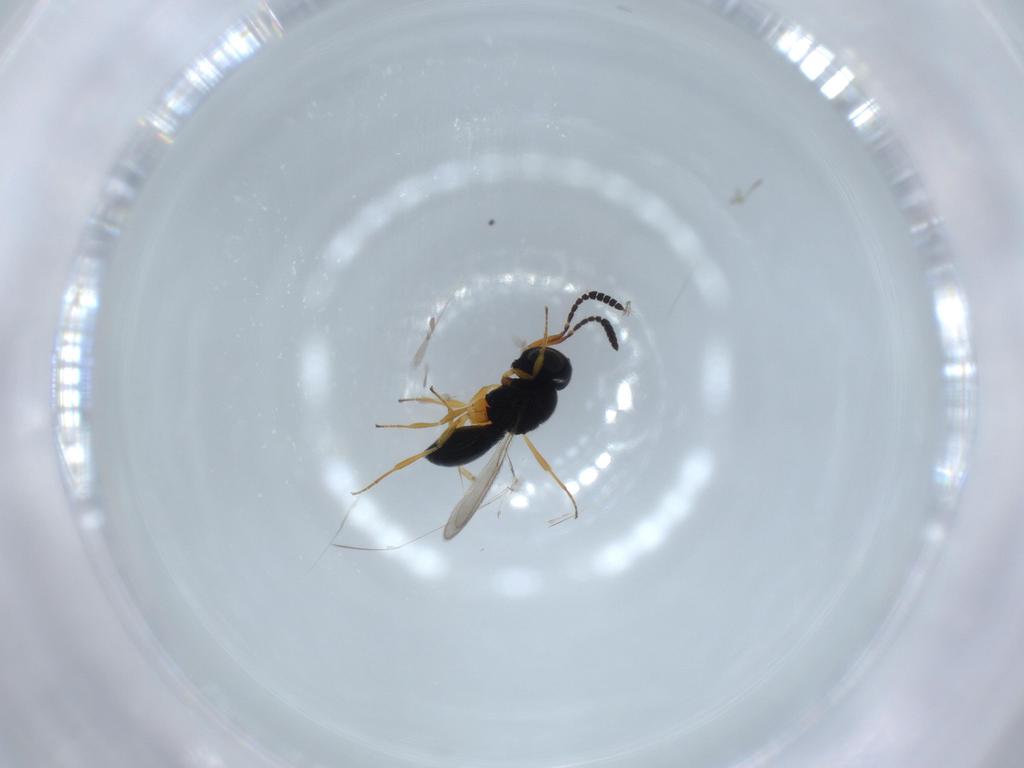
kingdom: Animalia
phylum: Arthropoda
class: Insecta
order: Hymenoptera
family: Scelionidae
